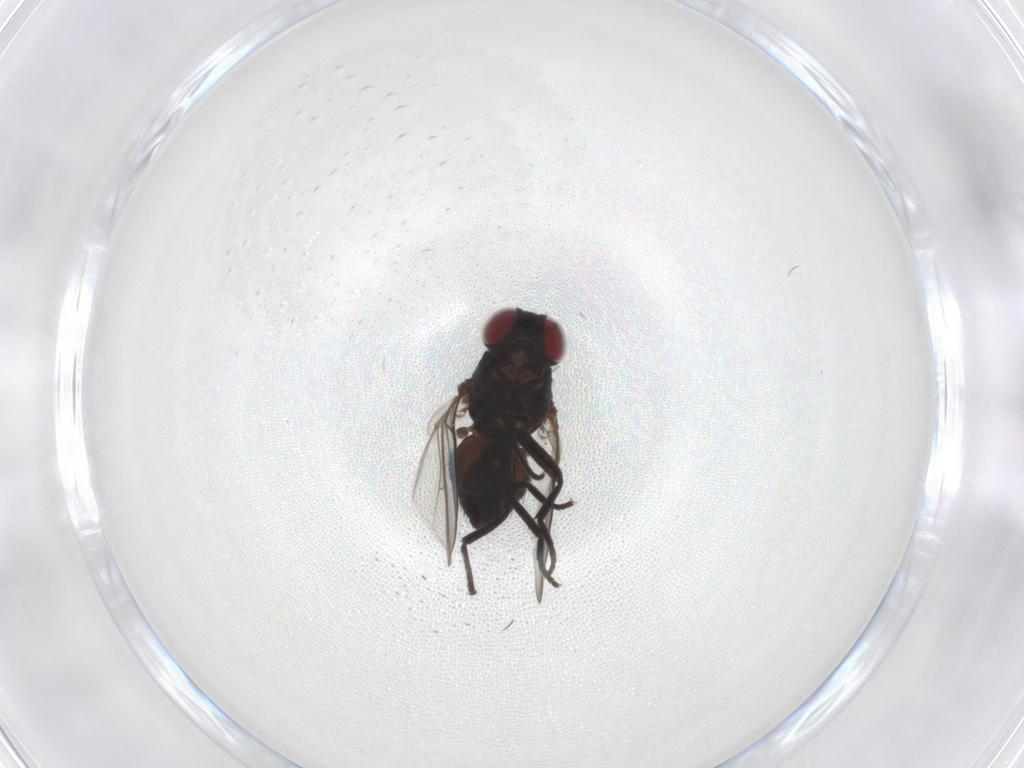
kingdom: Animalia
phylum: Arthropoda
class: Insecta
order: Diptera
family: Agromyzidae
